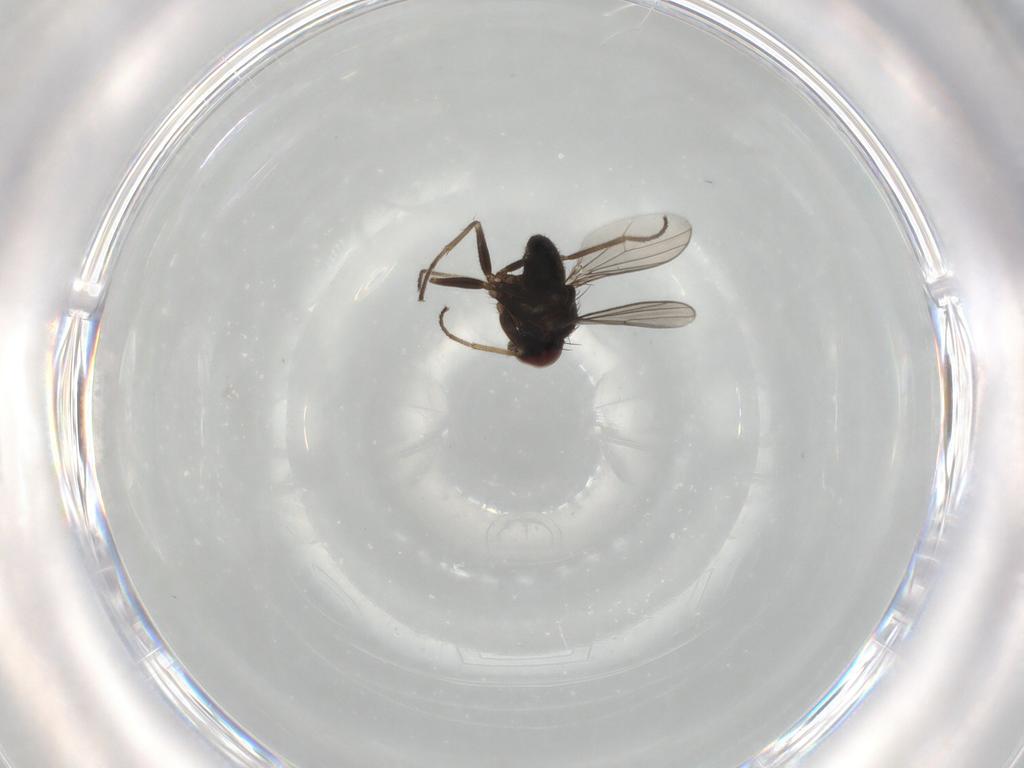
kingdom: Animalia
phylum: Arthropoda
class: Insecta
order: Diptera
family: Dolichopodidae
